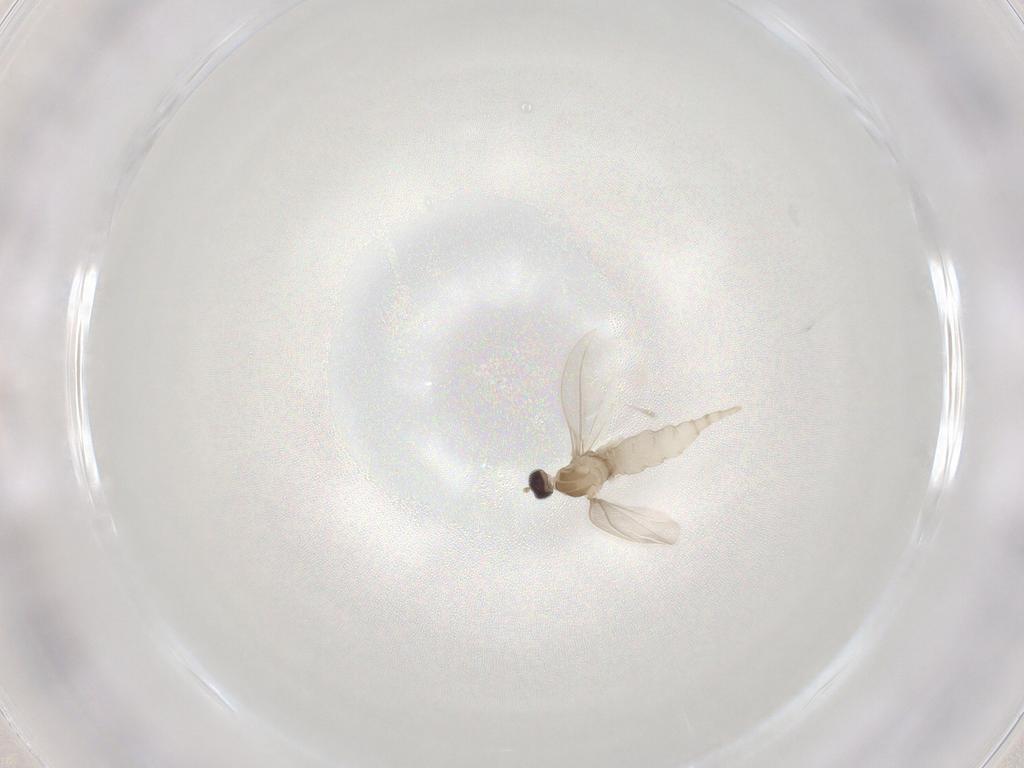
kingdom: Animalia
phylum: Arthropoda
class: Insecta
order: Diptera
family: Cecidomyiidae
